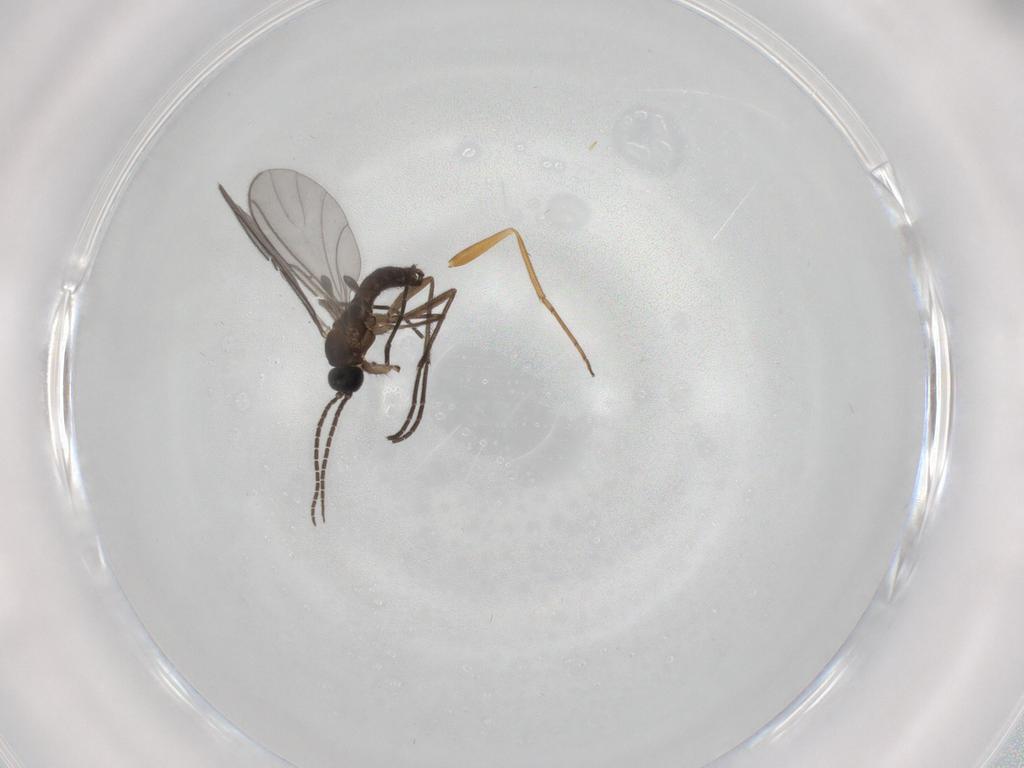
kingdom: Animalia
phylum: Arthropoda
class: Insecta
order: Diptera
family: Sciaridae
